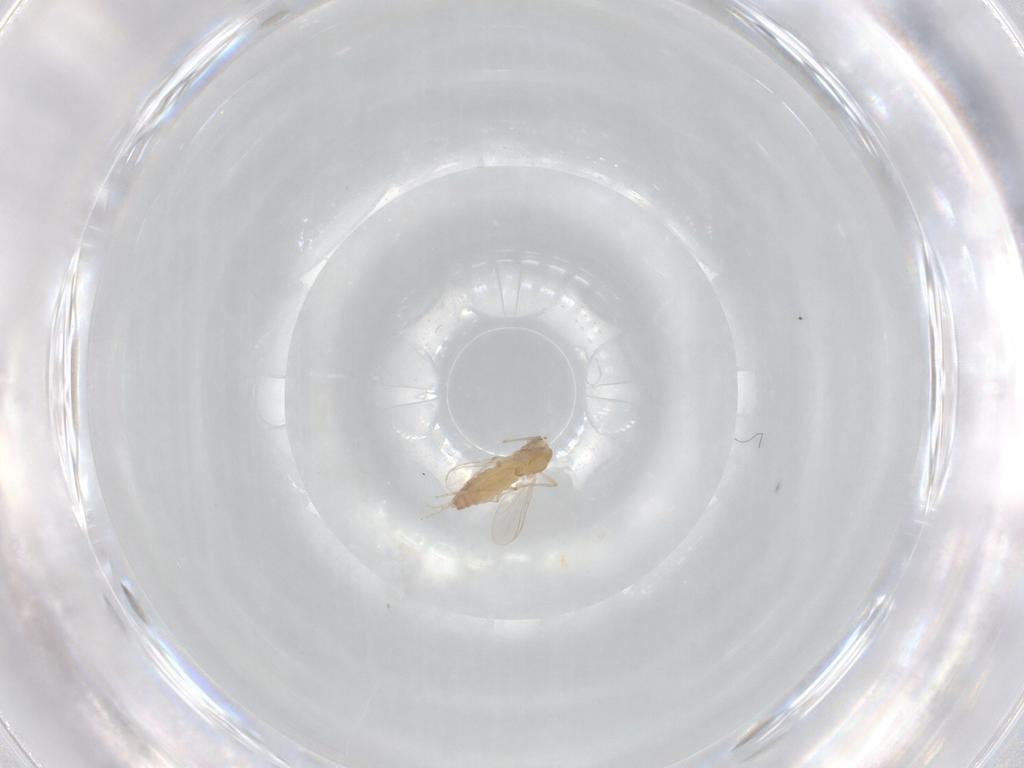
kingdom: Animalia
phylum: Arthropoda
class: Insecta
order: Diptera
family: Chironomidae
